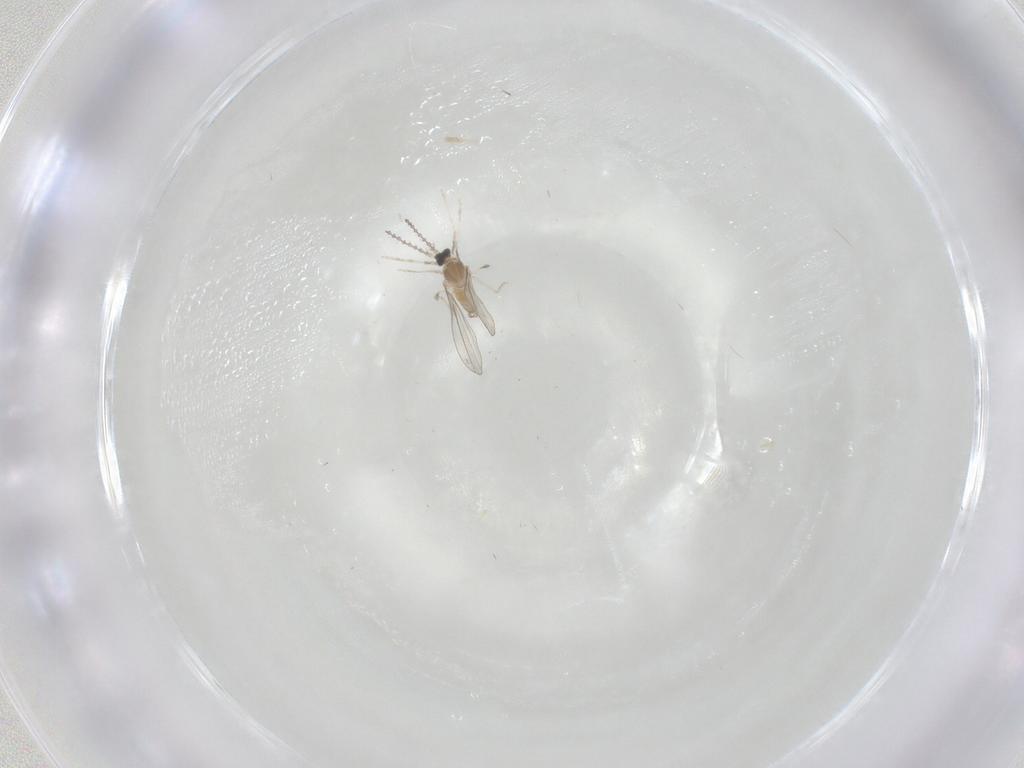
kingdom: Animalia
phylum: Arthropoda
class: Insecta
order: Diptera
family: Cecidomyiidae
